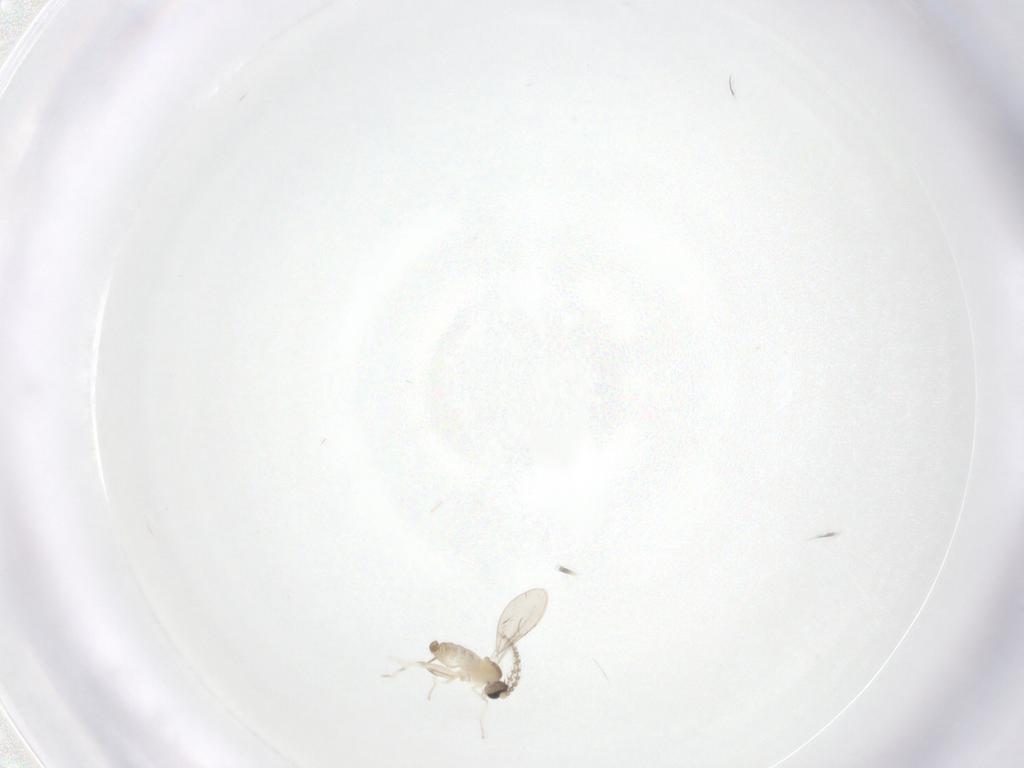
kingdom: Animalia
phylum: Arthropoda
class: Insecta
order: Diptera
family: Cecidomyiidae
